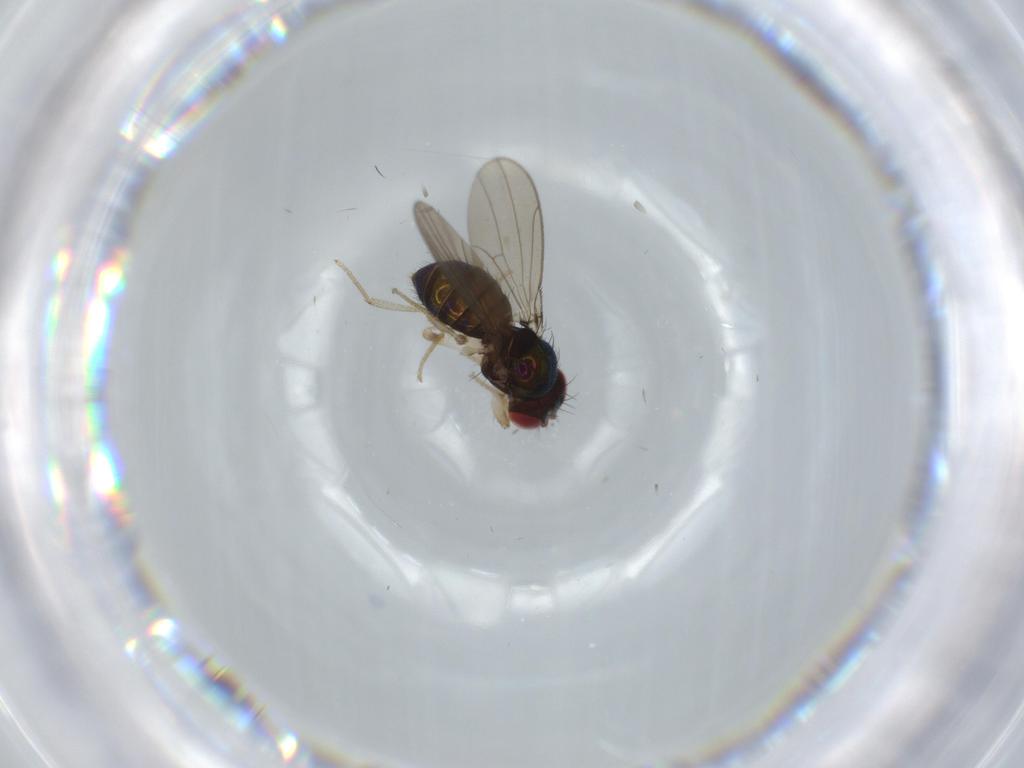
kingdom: Animalia
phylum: Arthropoda
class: Insecta
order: Diptera
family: Drosophilidae
